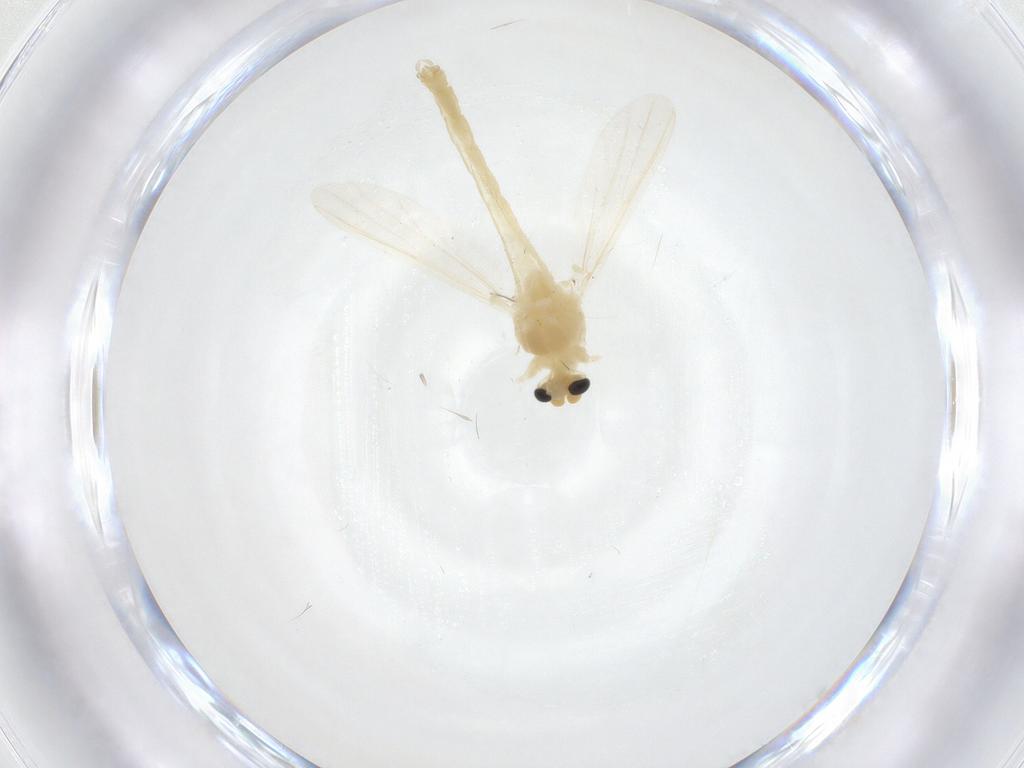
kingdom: Animalia
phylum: Arthropoda
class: Insecta
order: Diptera
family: Chironomidae
